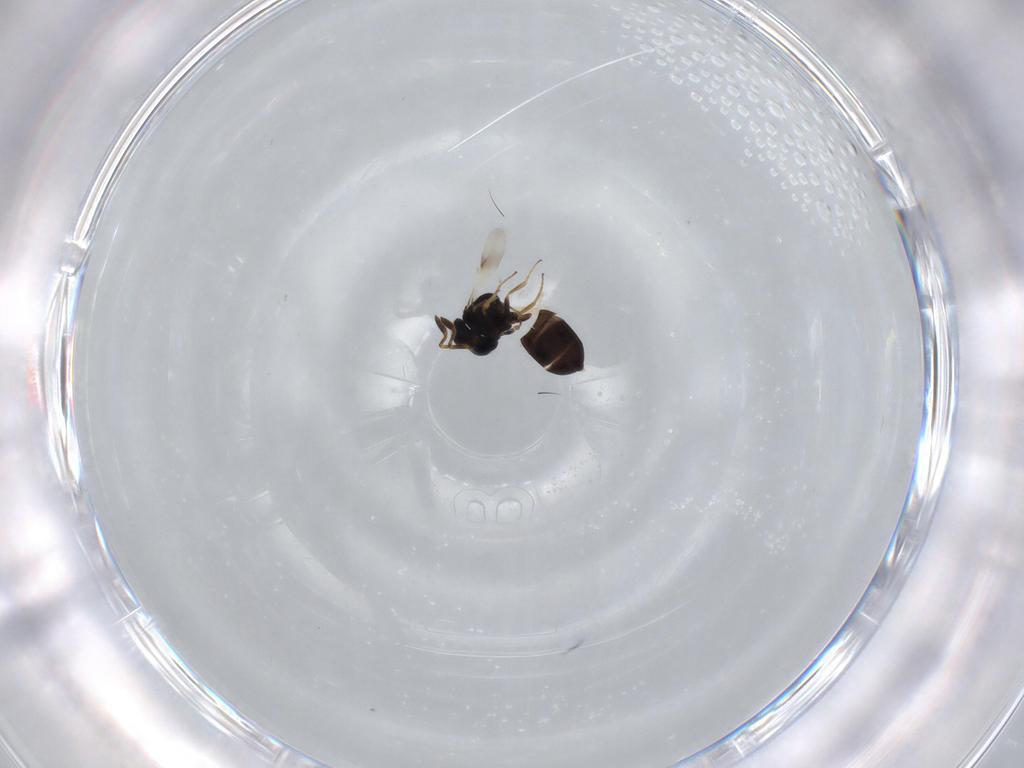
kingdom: Animalia
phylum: Arthropoda
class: Insecta
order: Hymenoptera
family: Scelionidae
